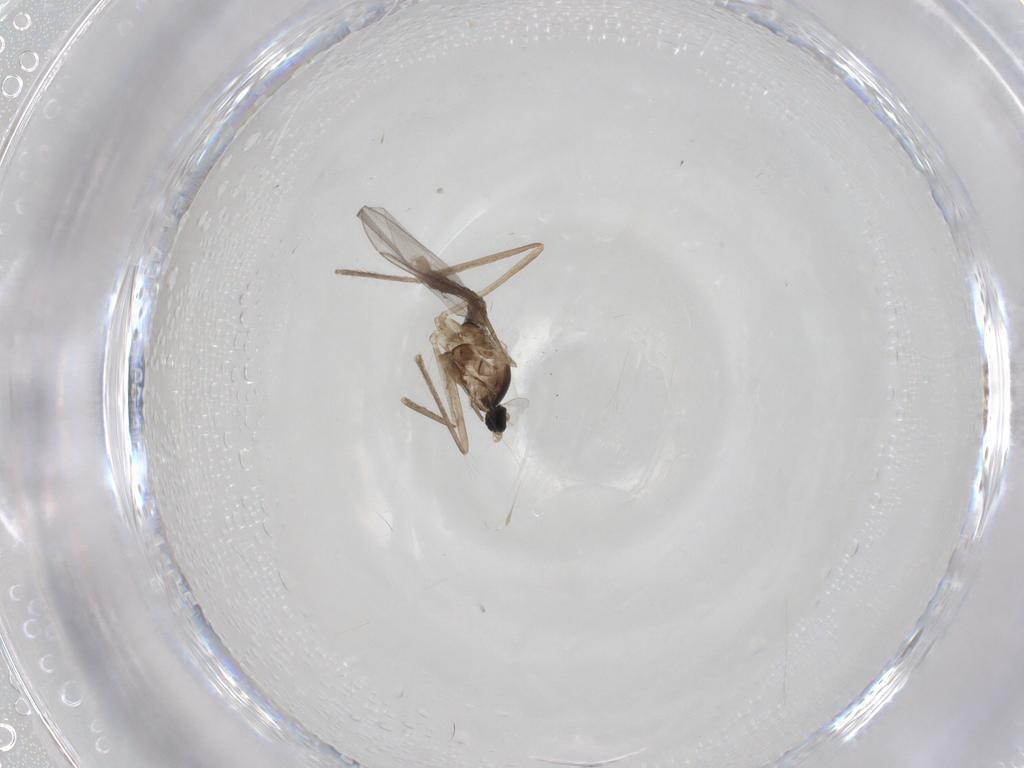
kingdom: Animalia
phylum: Arthropoda
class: Insecta
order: Diptera
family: Cecidomyiidae
